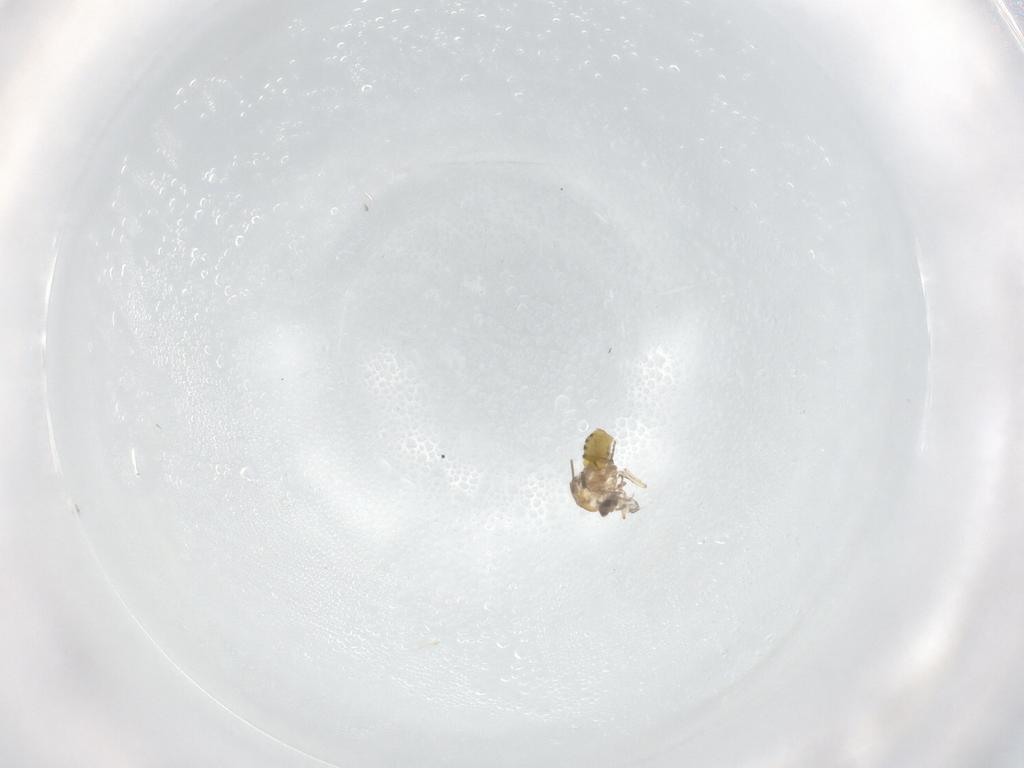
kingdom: Animalia
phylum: Arthropoda
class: Insecta
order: Diptera
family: Ceratopogonidae
